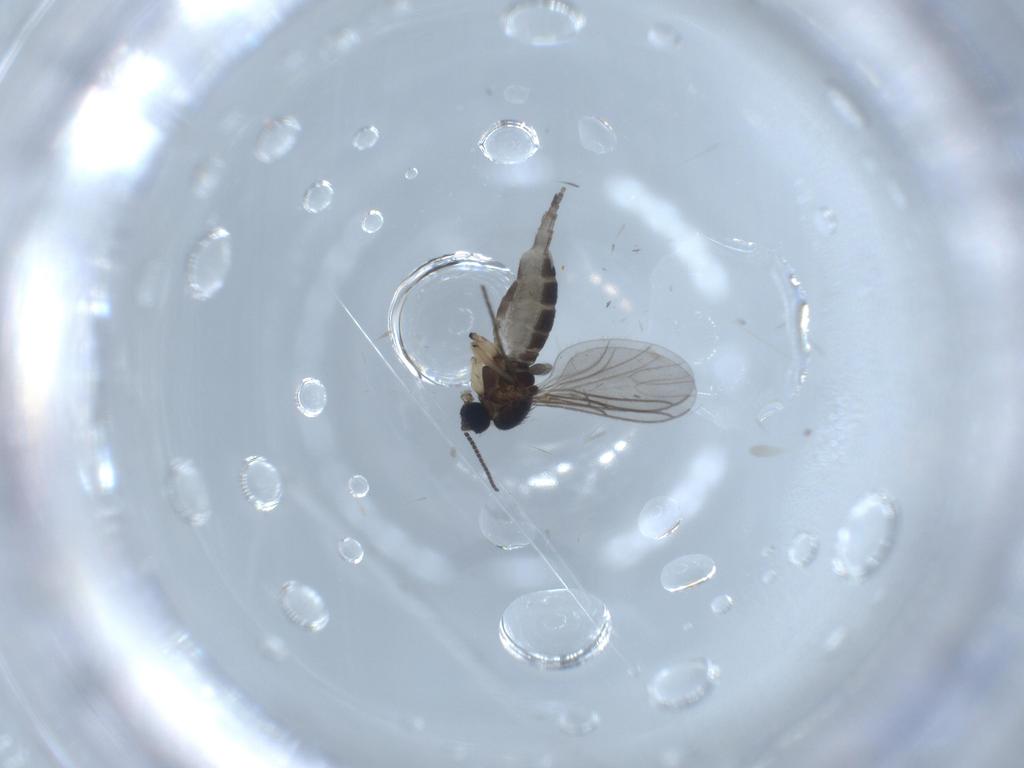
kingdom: Animalia
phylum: Arthropoda
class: Insecta
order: Diptera
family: Sciaridae
